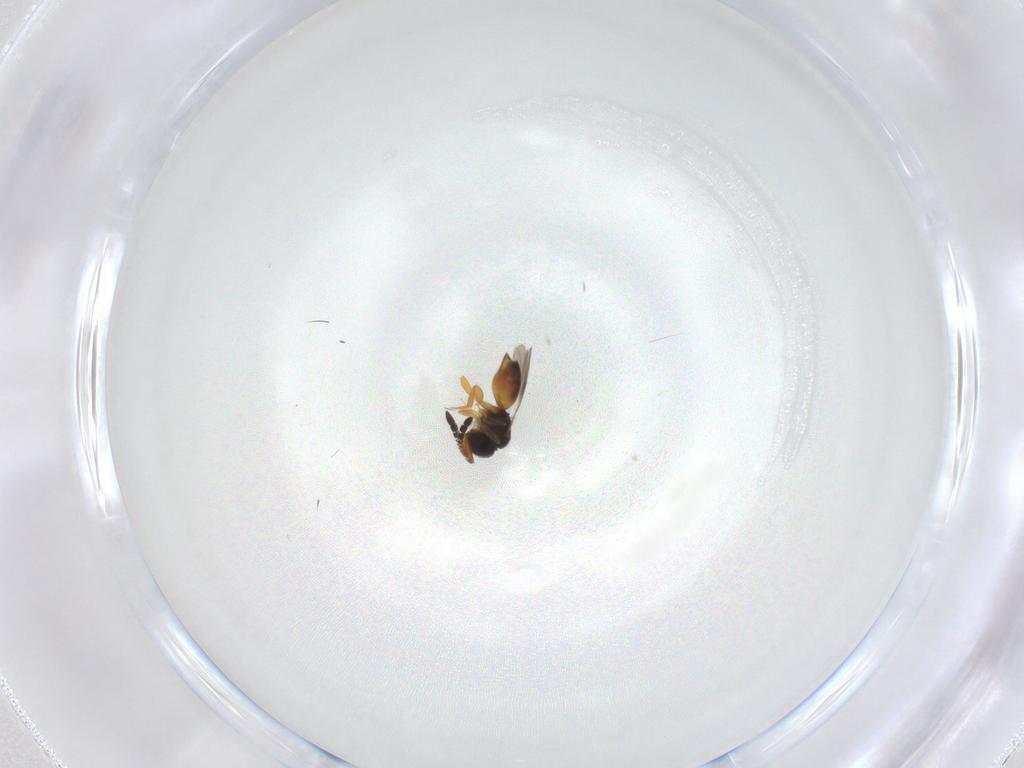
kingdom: Animalia
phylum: Arthropoda
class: Insecta
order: Hymenoptera
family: Ceraphronidae
